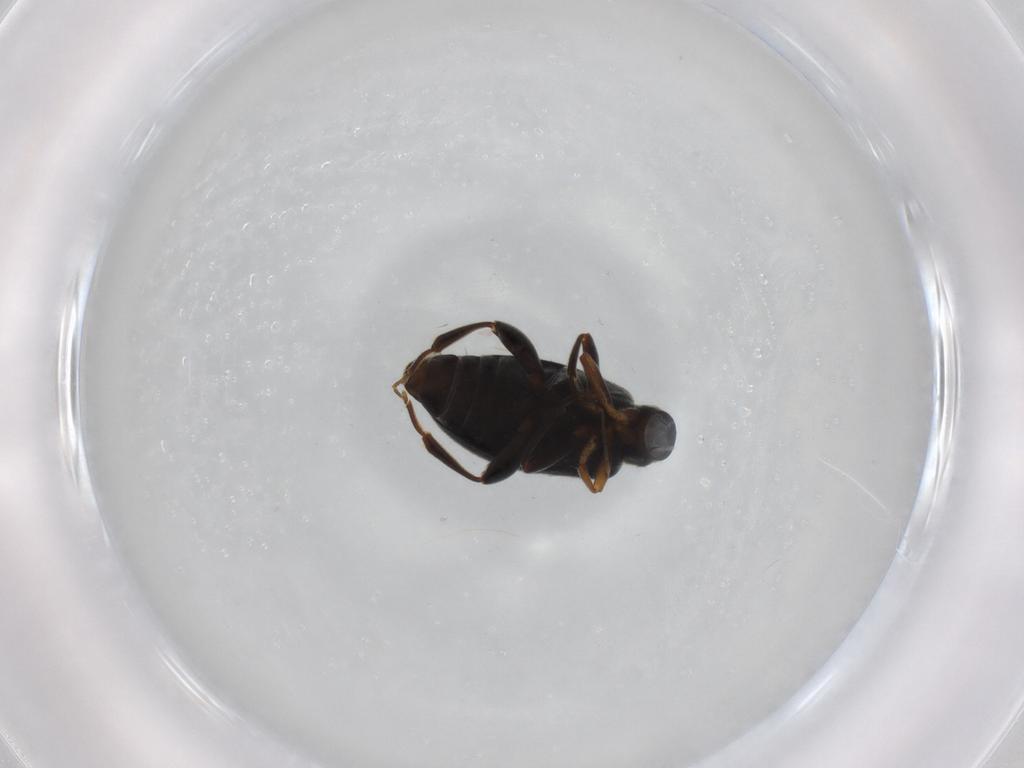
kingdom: Animalia
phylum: Arthropoda
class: Insecta
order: Coleoptera
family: Aderidae
